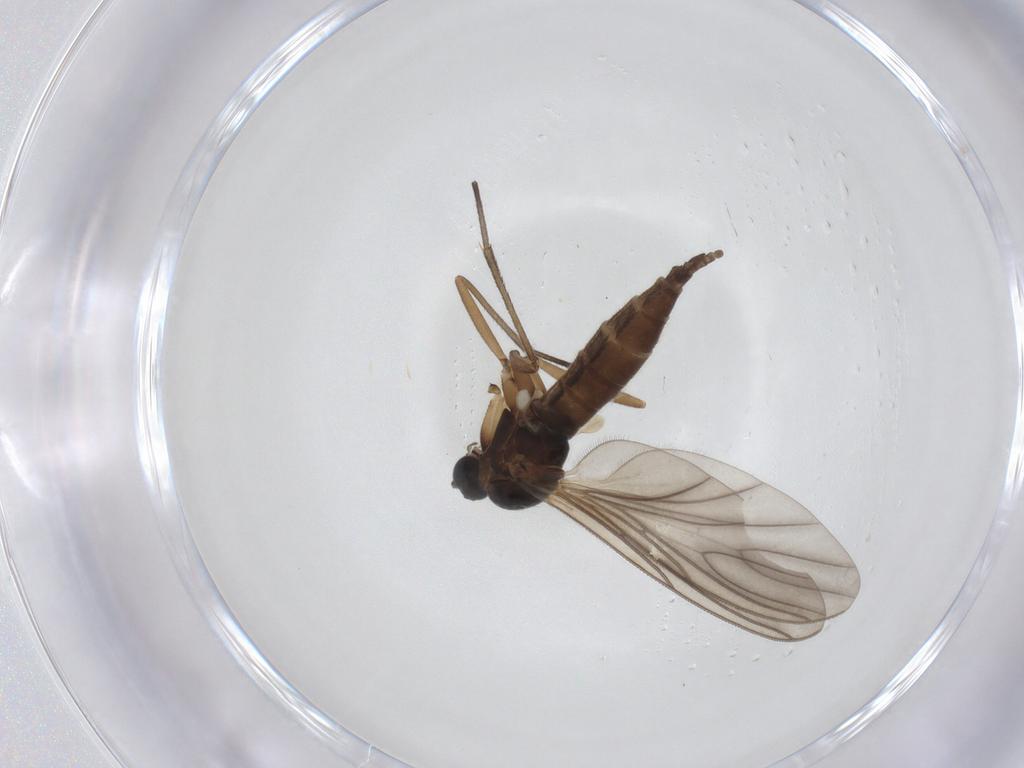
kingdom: Animalia
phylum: Arthropoda
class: Insecta
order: Diptera
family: Sciaridae
